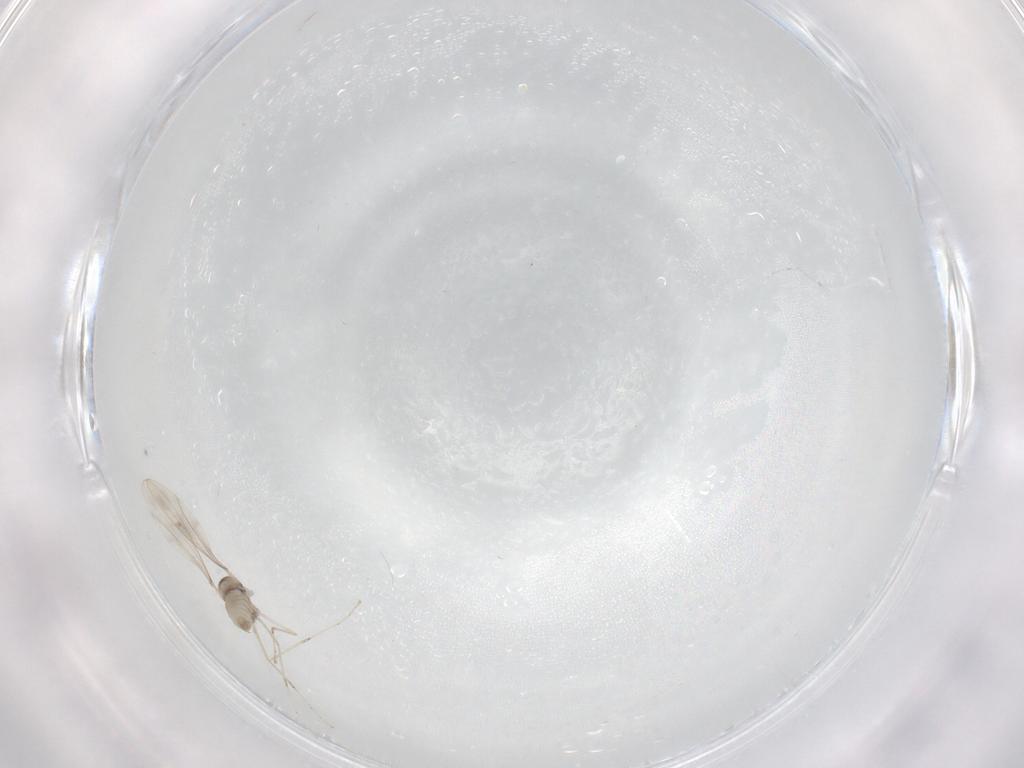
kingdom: Animalia
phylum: Arthropoda
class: Insecta
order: Diptera
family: Cecidomyiidae
